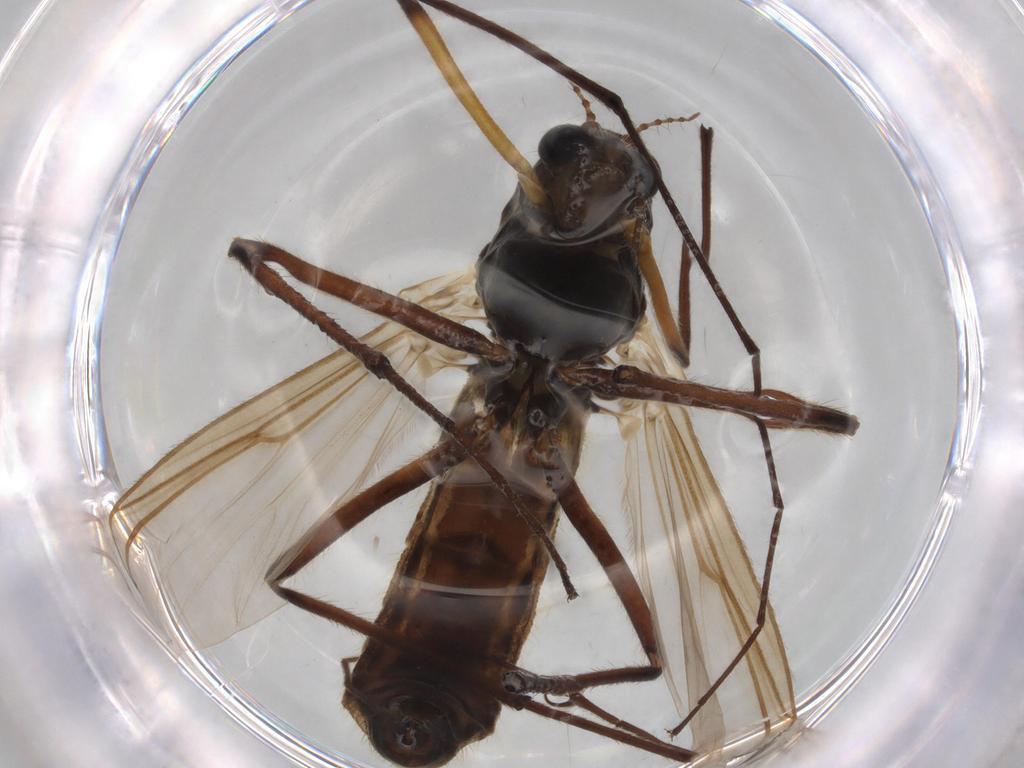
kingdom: Animalia
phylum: Arthropoda
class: Insecta
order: Diptera
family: Chironomidae
